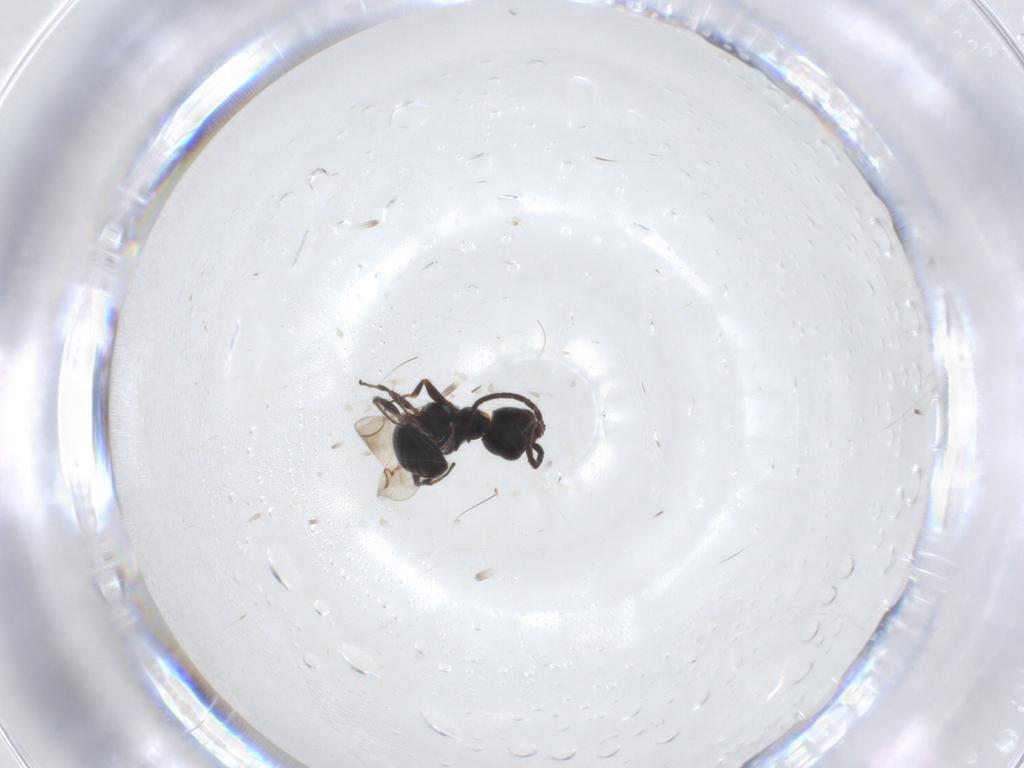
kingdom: Animalia
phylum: Arthropoda
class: Insecta
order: Hymenoptera
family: Bethylidae
